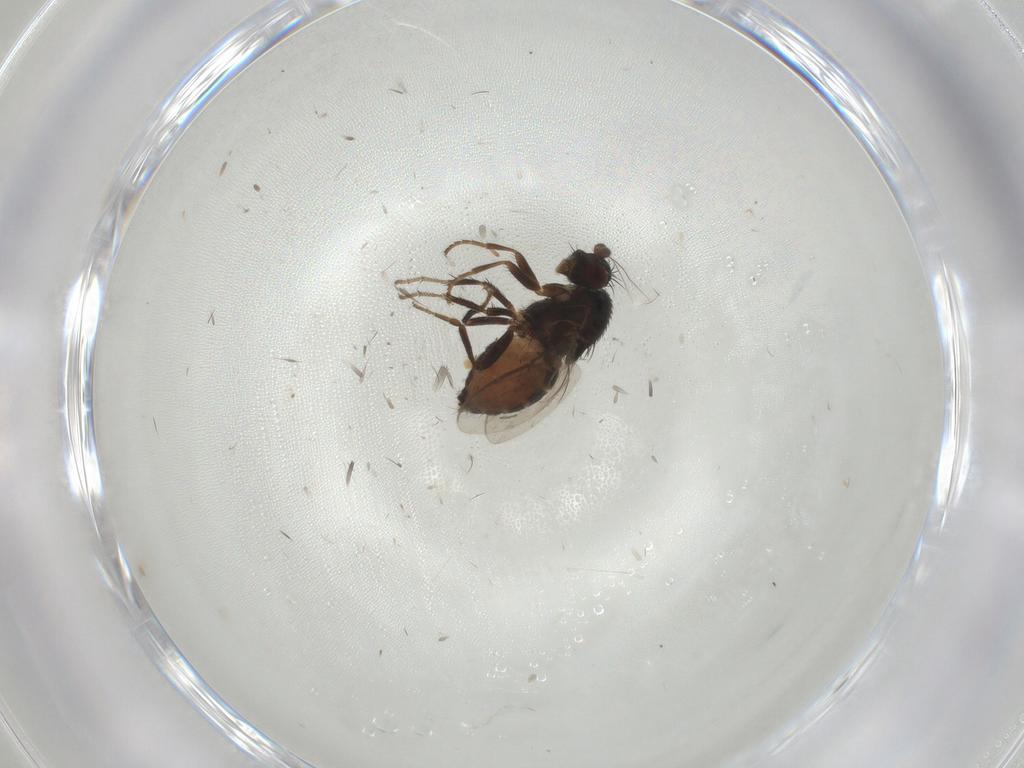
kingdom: Animalia
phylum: Arthropoda
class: Insecta
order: Diptera
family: Sphaeroceridae
